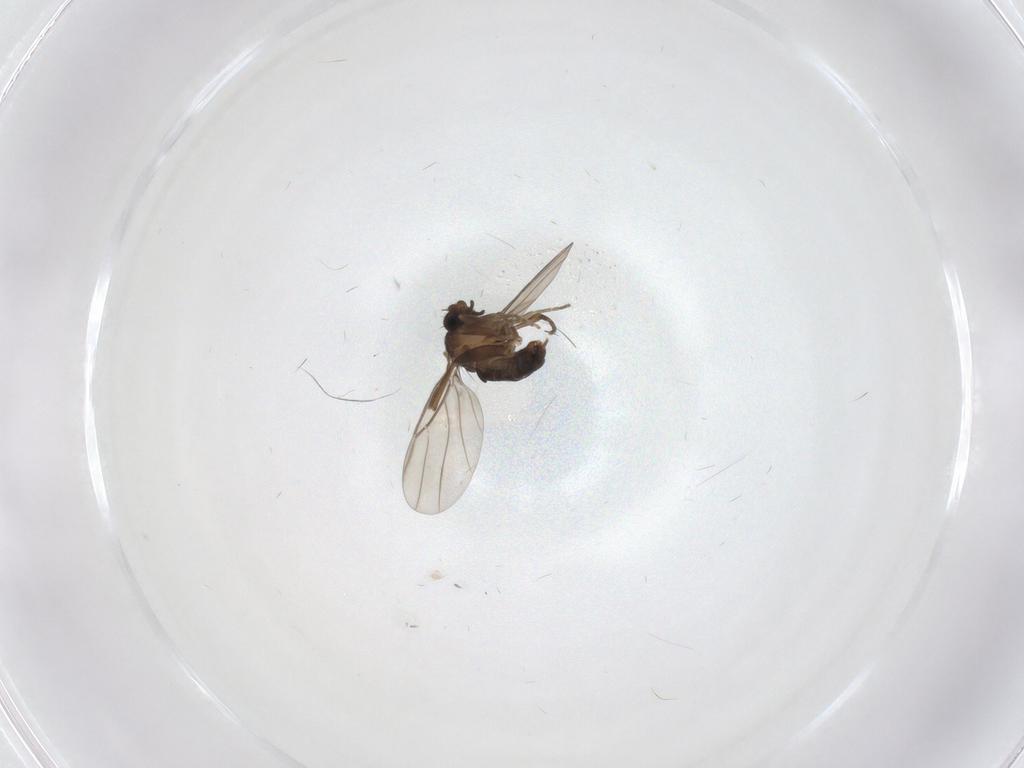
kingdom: Animalia
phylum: Arthropoda
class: Insecta
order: Diptera
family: Phoridae
